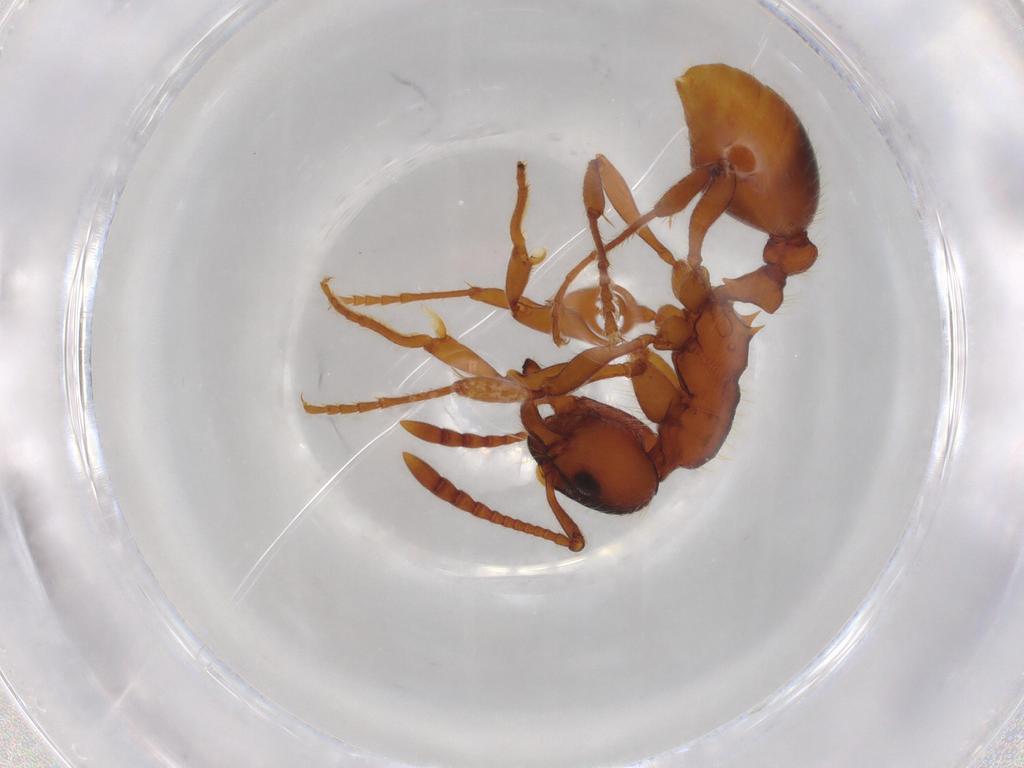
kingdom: Animalia
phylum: Arthropoda
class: Insecta
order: Hymenoptera
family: Formicidae
